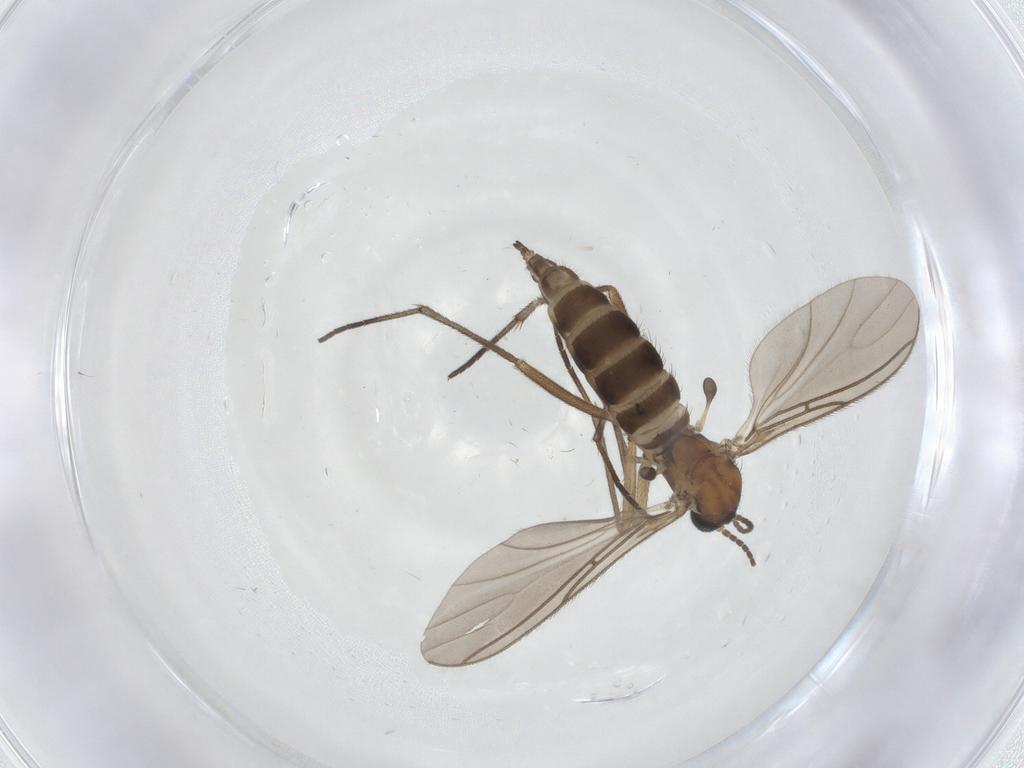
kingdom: Animalia
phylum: Arthropoda
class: Insecta
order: Diptera
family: Sciaridae
